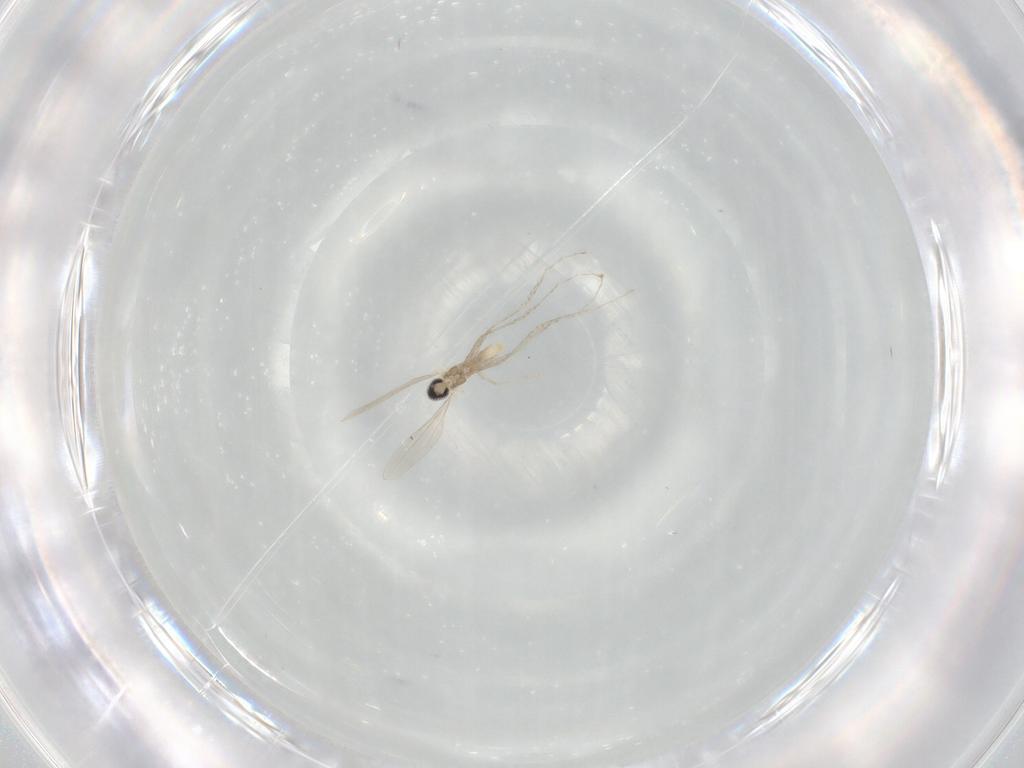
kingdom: Animalia
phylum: Arthropoda
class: Insecta
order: Diptera
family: Cecidomyiidae
